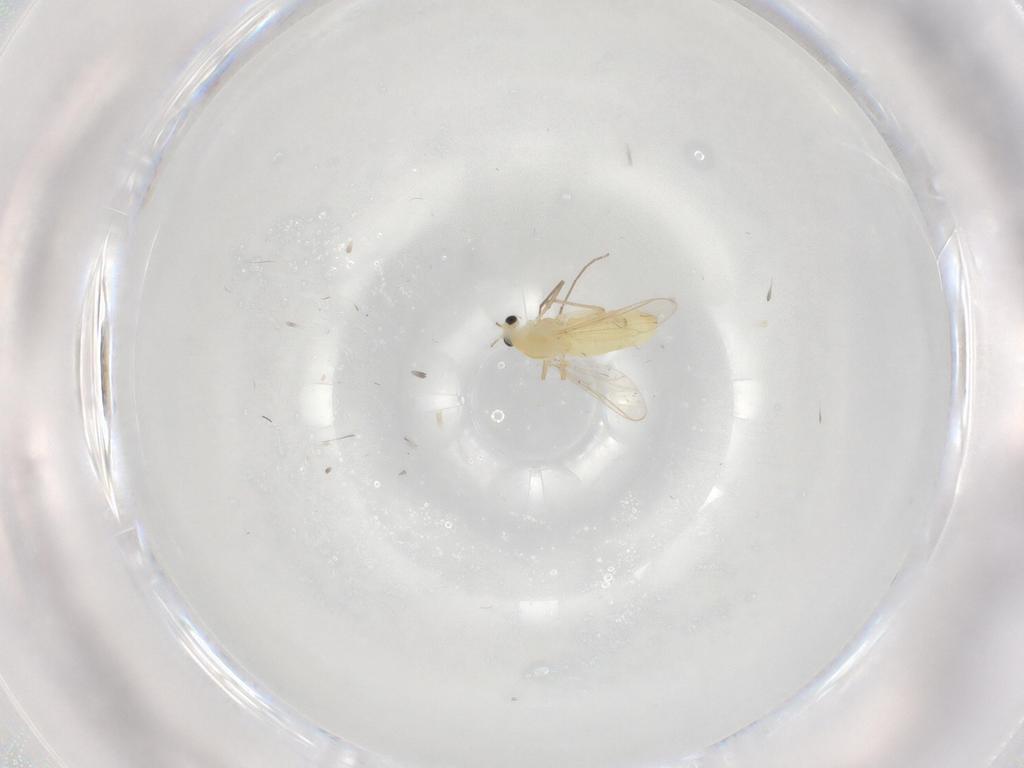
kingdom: Animalia
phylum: Arthropoda
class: Insecta
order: Diptera
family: Chironomidae
